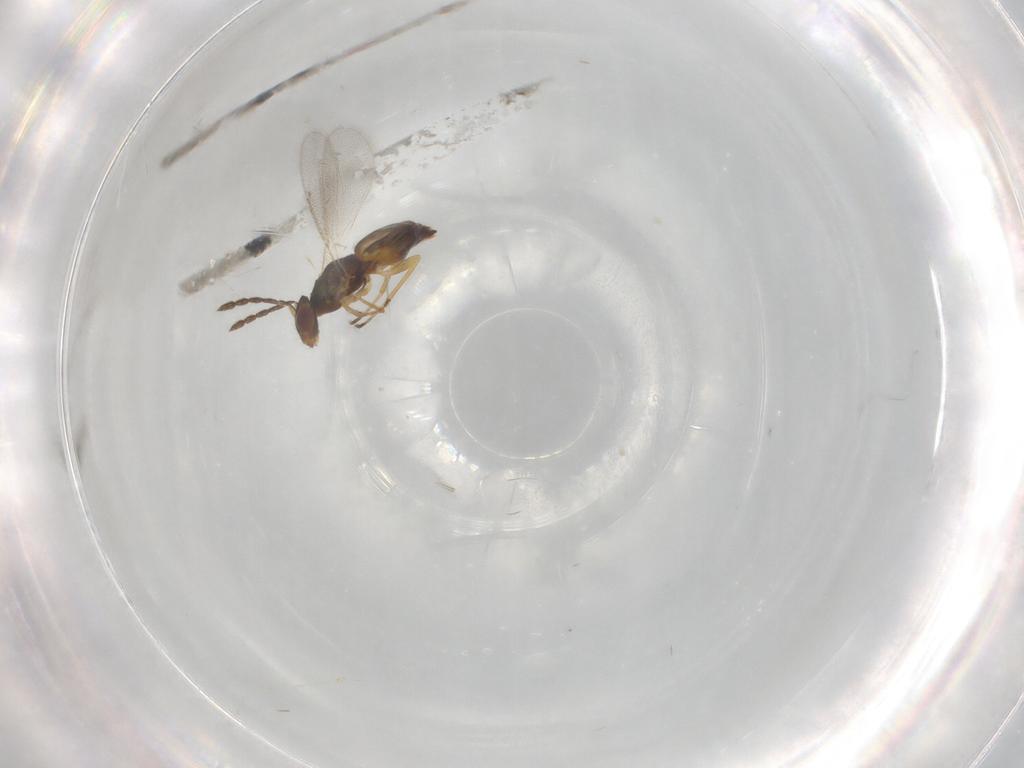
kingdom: Animalia
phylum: Arthropoda
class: Insecta
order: Hymenoptera
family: Eulophidae
